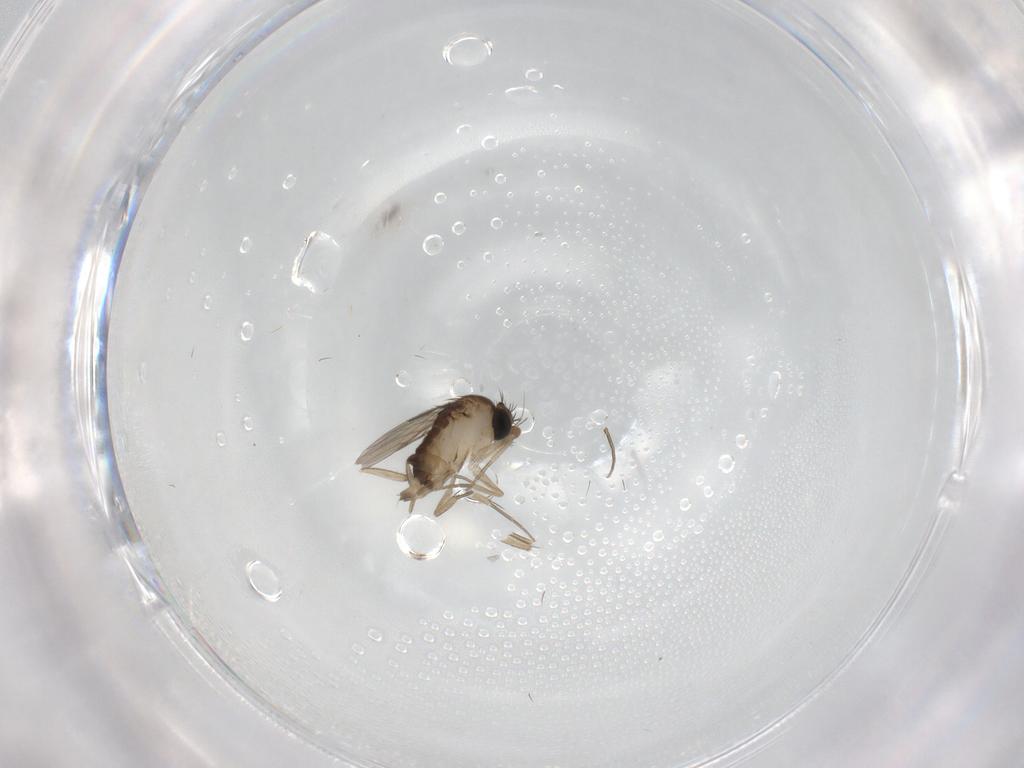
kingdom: Animalia
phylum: Arthropoda
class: Insecta
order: Diptera
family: Phoridae
